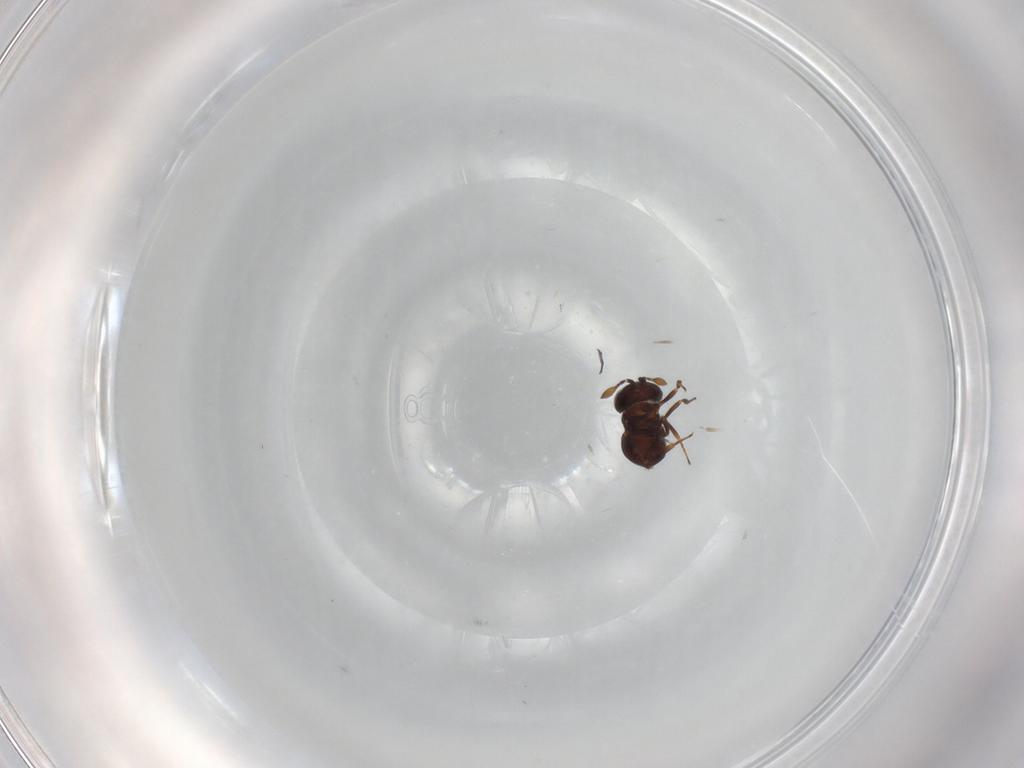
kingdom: Animalia
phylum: Arthropoda
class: Insecta
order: Hymenoptera
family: Scelionidae
